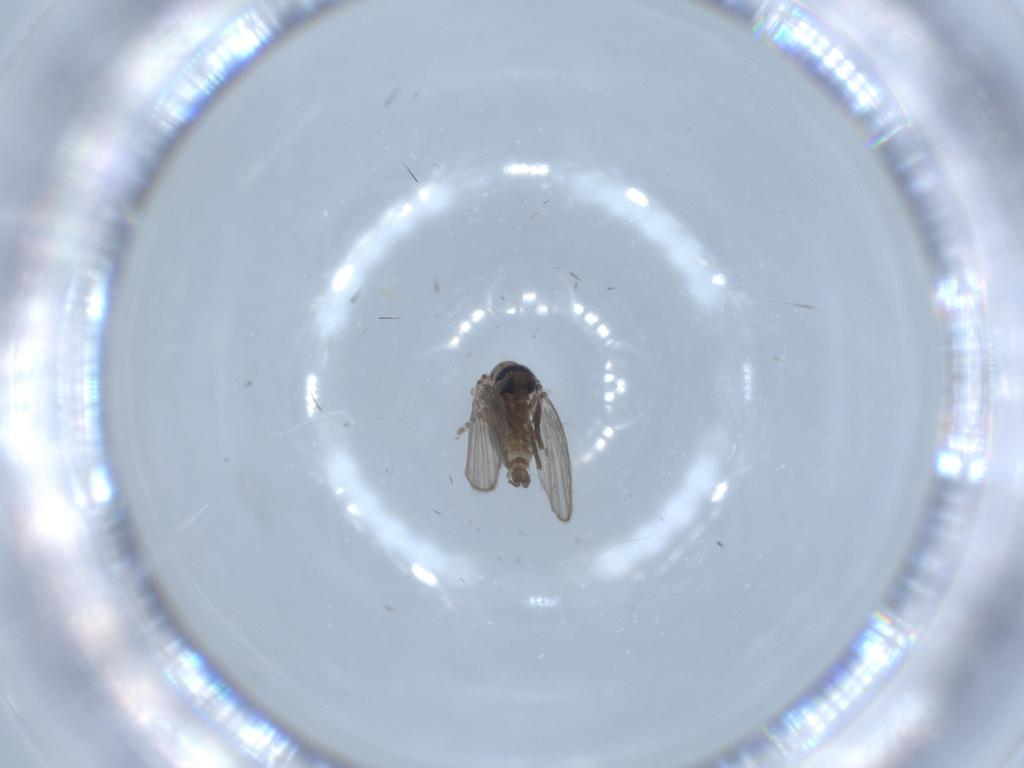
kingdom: Animalia
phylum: Arthropoda
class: Insecta
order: Diptera
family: Psychodidae
